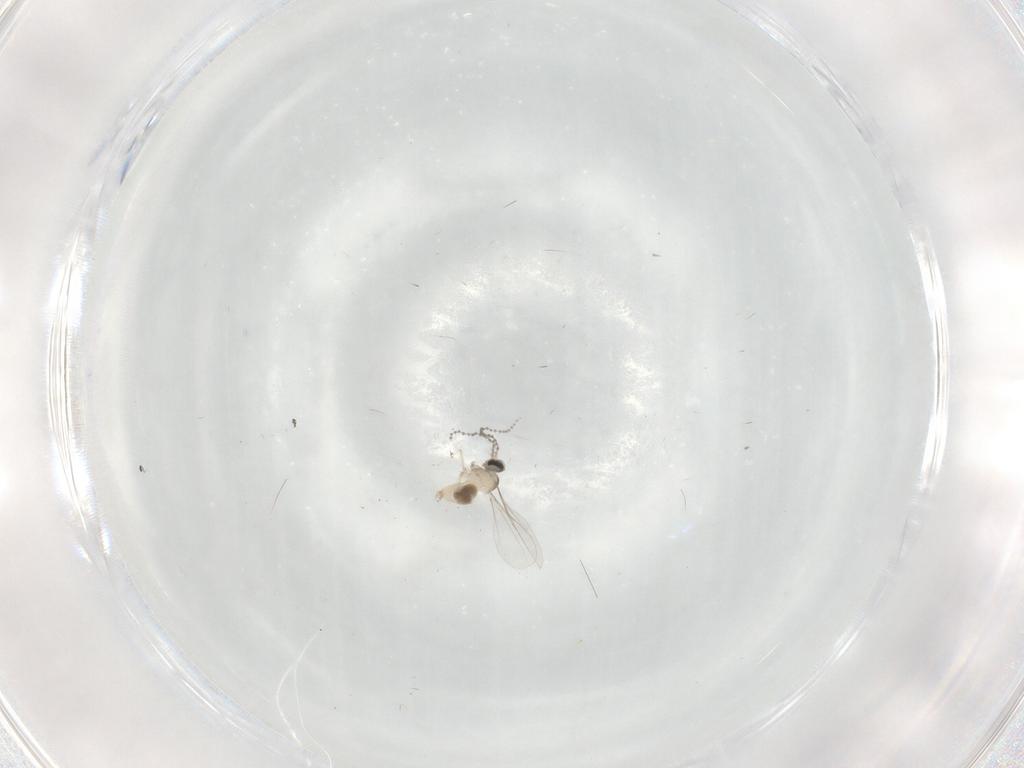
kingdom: Animalia
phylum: Arthropoda
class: Insecta
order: Diptera
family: Cecidomyiidae
